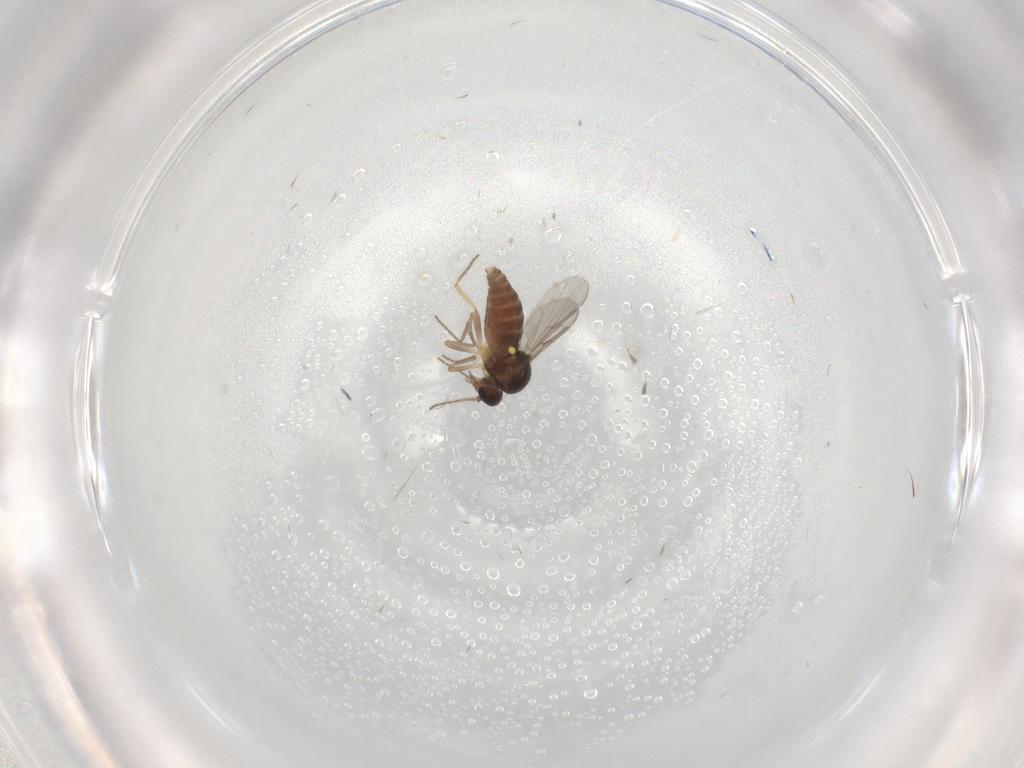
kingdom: Animalia
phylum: Arthropoda
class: Insecta
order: Diptera
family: Ceratopogonidae
